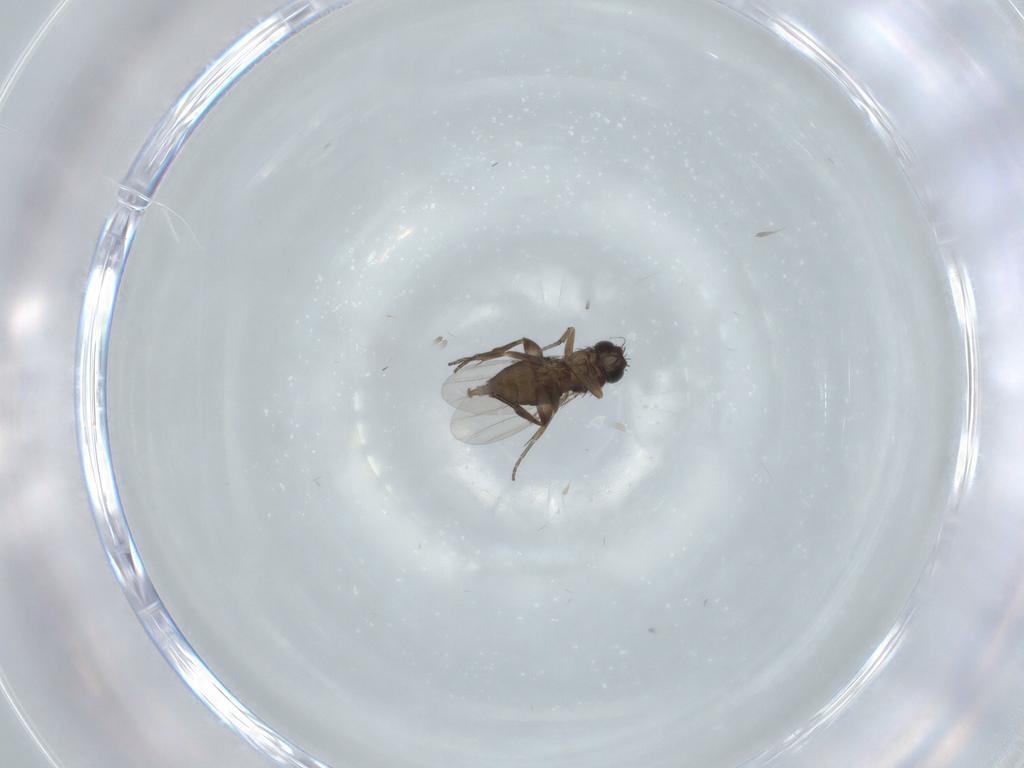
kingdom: Animalia
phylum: Arthropoda
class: Insecta
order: Diptera
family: Phoridae
